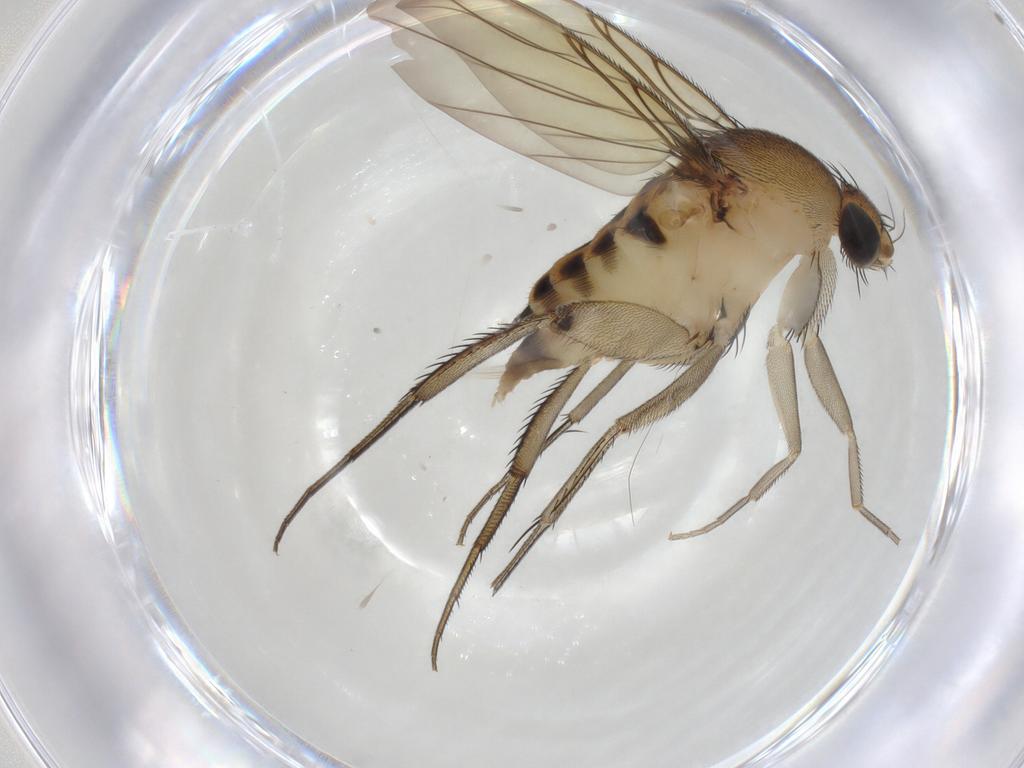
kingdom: Animalia
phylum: Arthropoda
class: Insecta
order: Diptera
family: Phoridae
